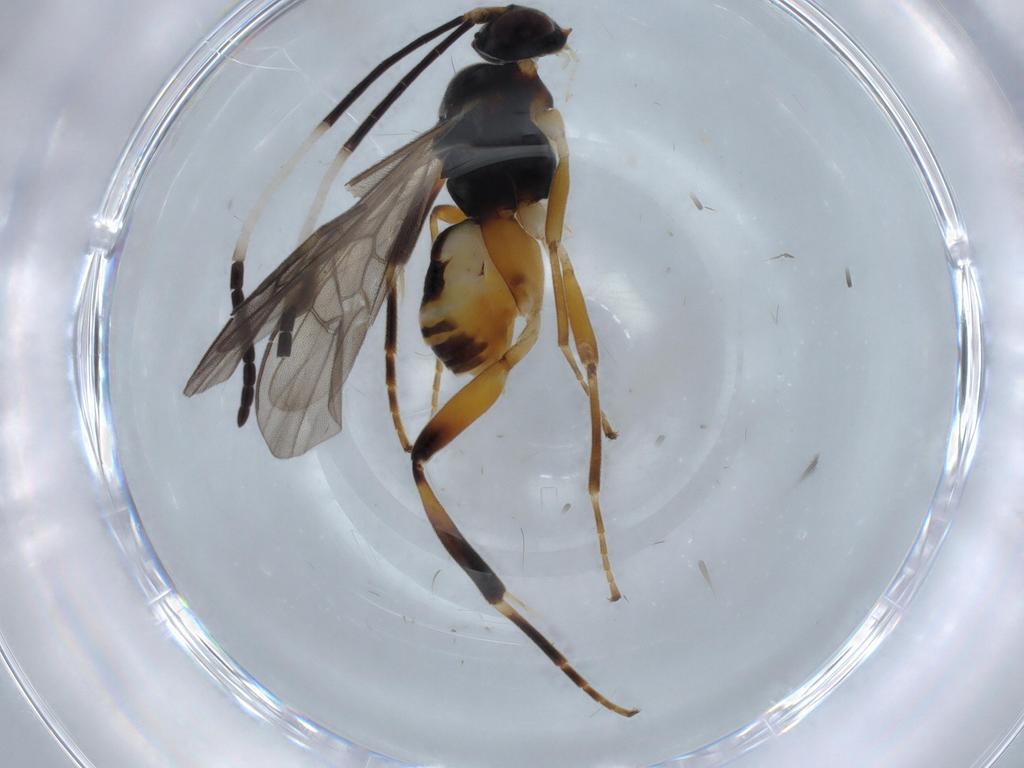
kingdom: Animalia
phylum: Arthropoda
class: Insecta
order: Hymenoptera
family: Braconidae
